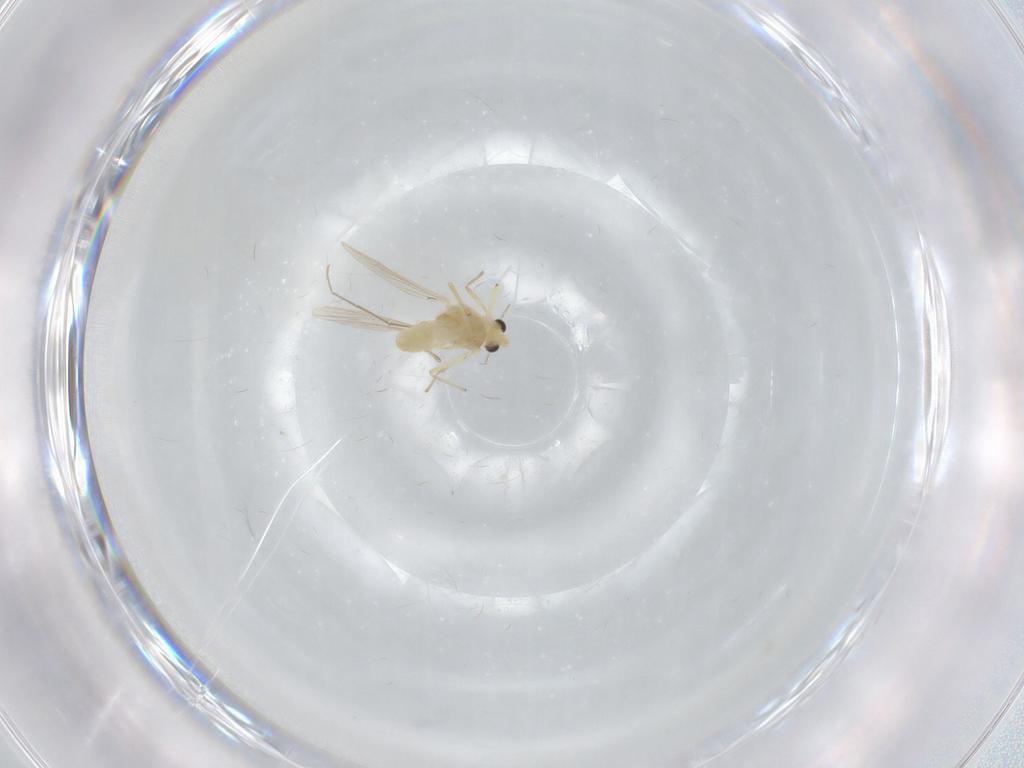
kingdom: Animalia
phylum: Arthropoda
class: Insecta
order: Diptera
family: Chironomidae
